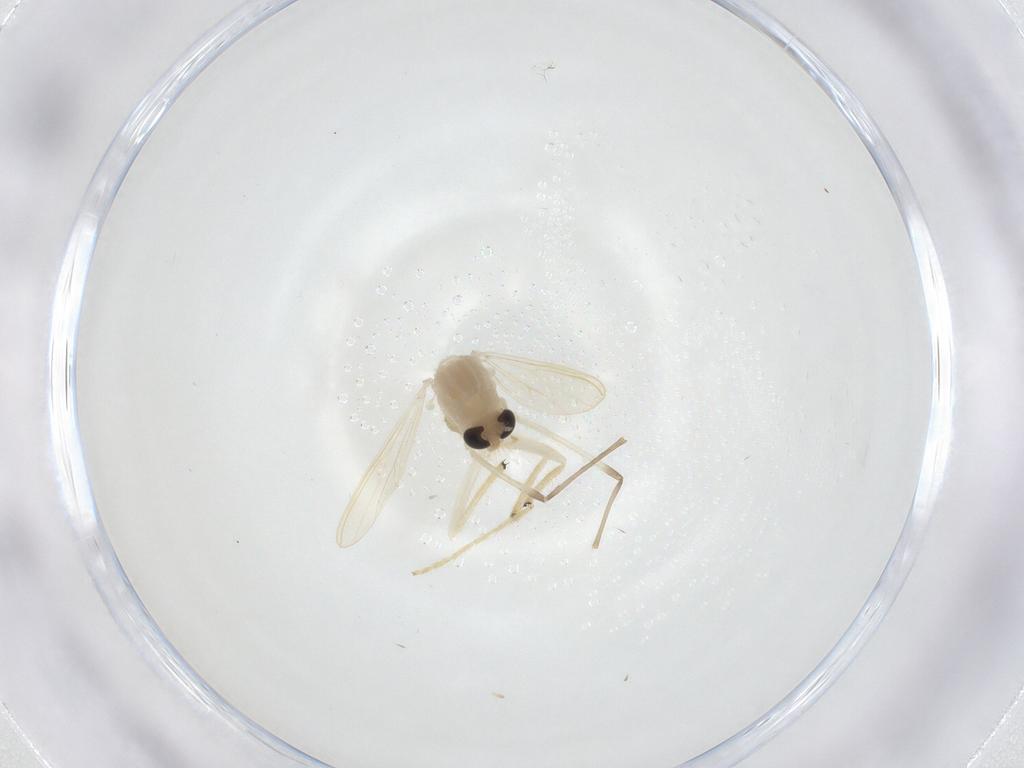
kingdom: Animalia
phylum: Arthropoda
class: Insecta
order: Diptera
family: Chironomidae
